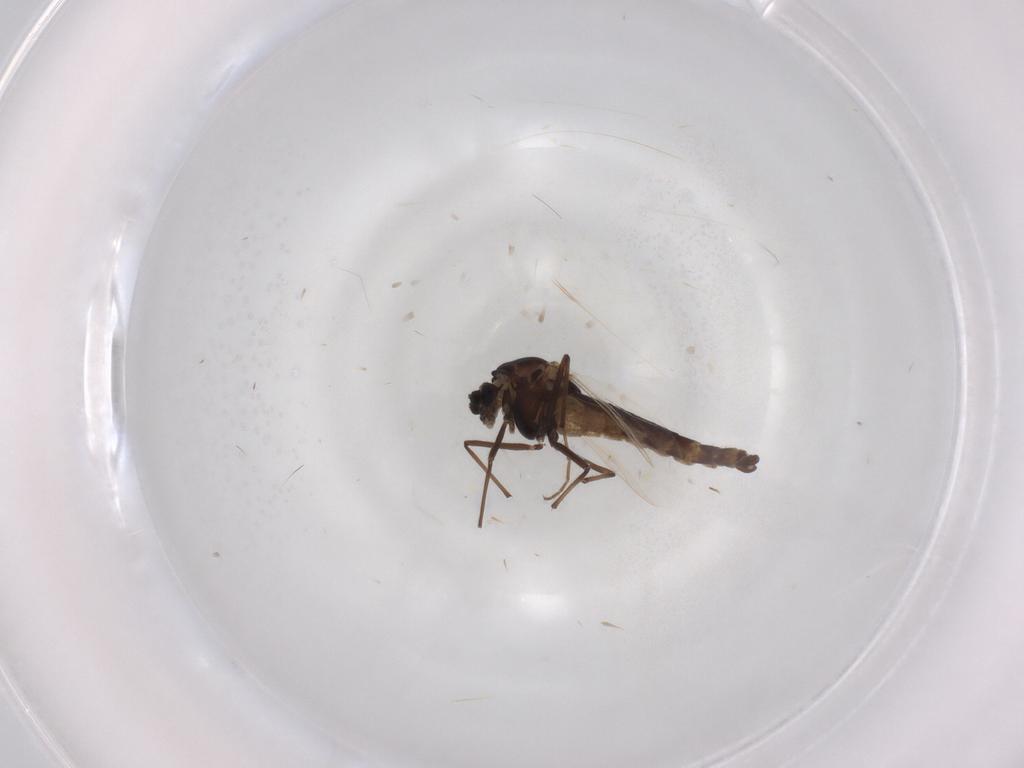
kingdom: Animalia
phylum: Arthropoda
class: Insecta
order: Diptera
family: Chironomidae
